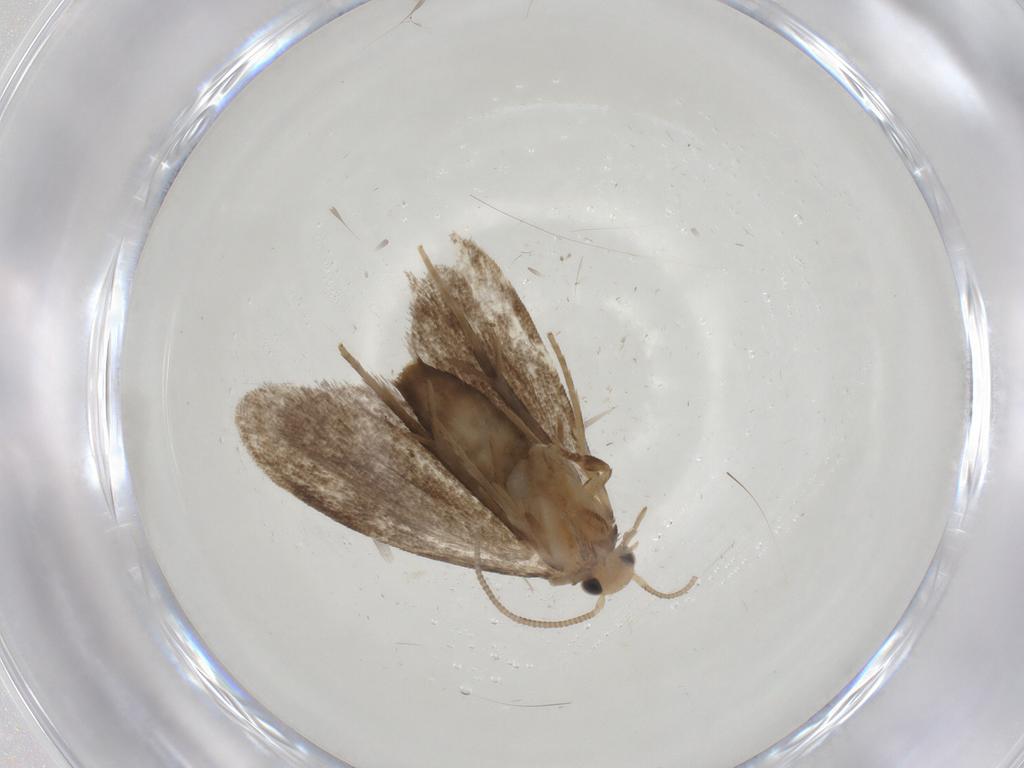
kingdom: Animalia
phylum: Arthropoda
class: Insecta
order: Lepidoptera
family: Dryadaulidae
